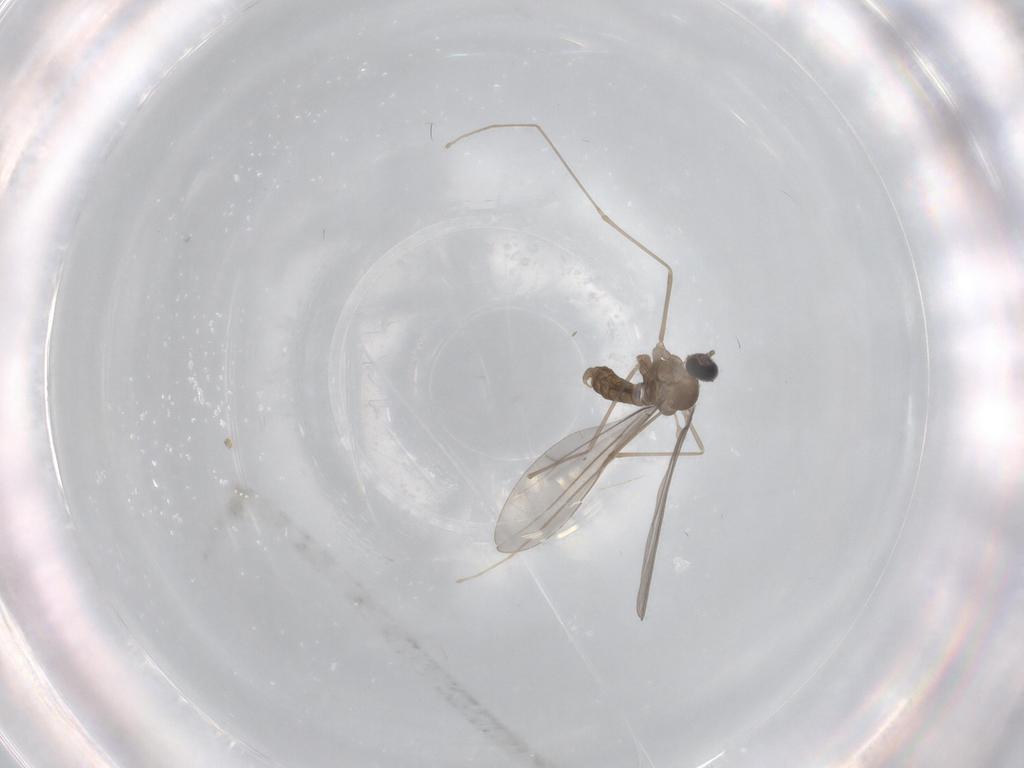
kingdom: Animalia
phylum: Arthropoda
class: Insecta
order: Diptera
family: Cecidomyiidae
